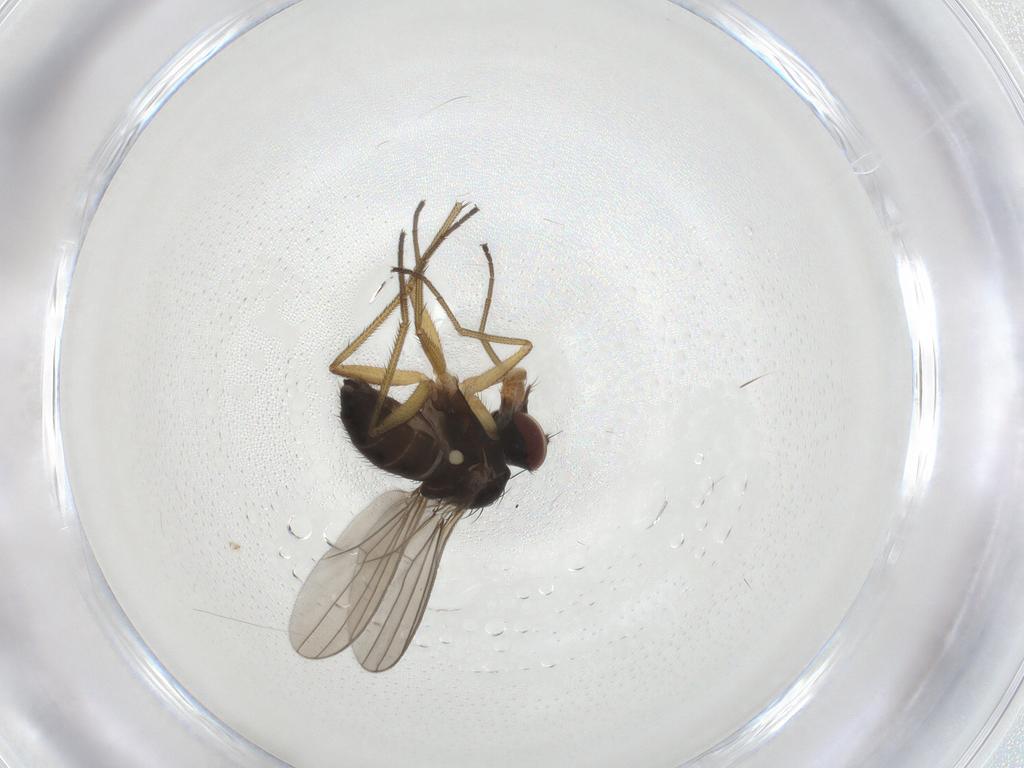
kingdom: Animalia
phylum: Arthropoda
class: Insecta
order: Diptera
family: Dolichopodidae
